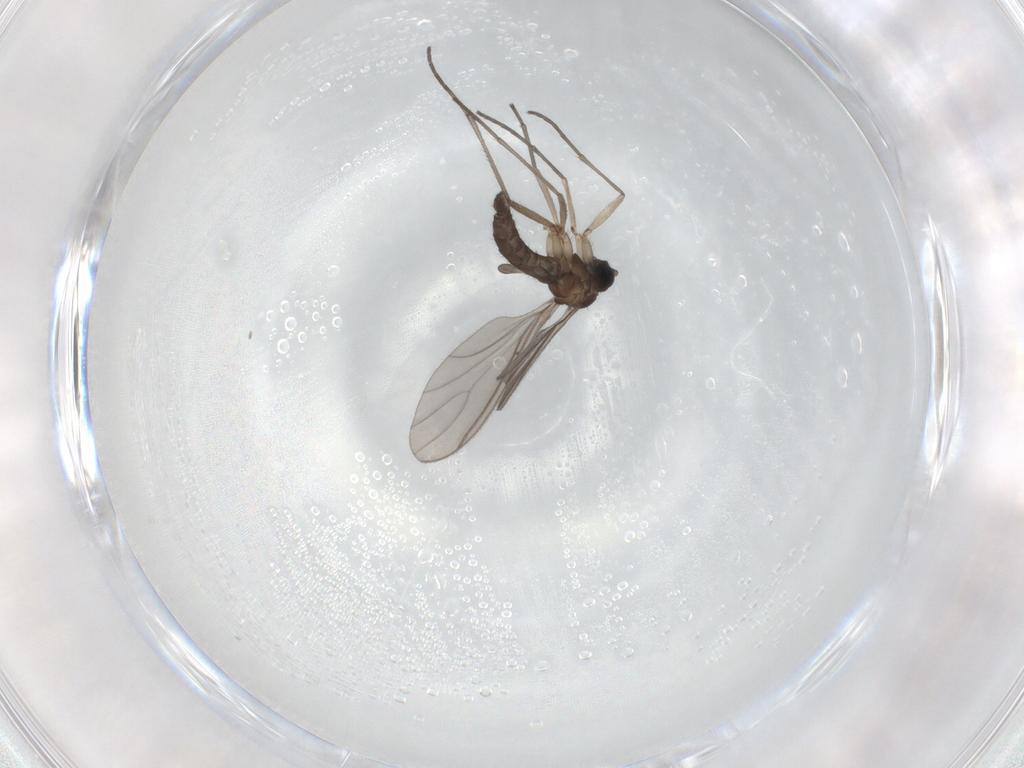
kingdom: Animalia
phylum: Arthropoda
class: Insecta
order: Diptera
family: Cecidomyiidae
